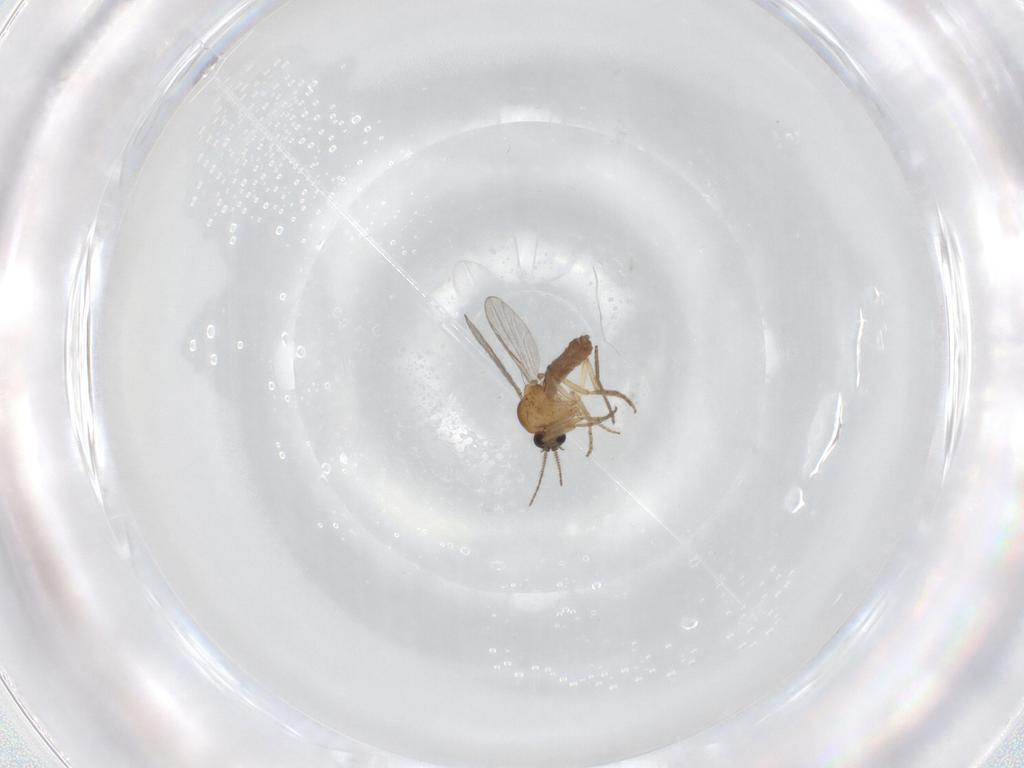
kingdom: Animalia
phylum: Arthropoda
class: Insecta
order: Diptera
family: Chironomidae
